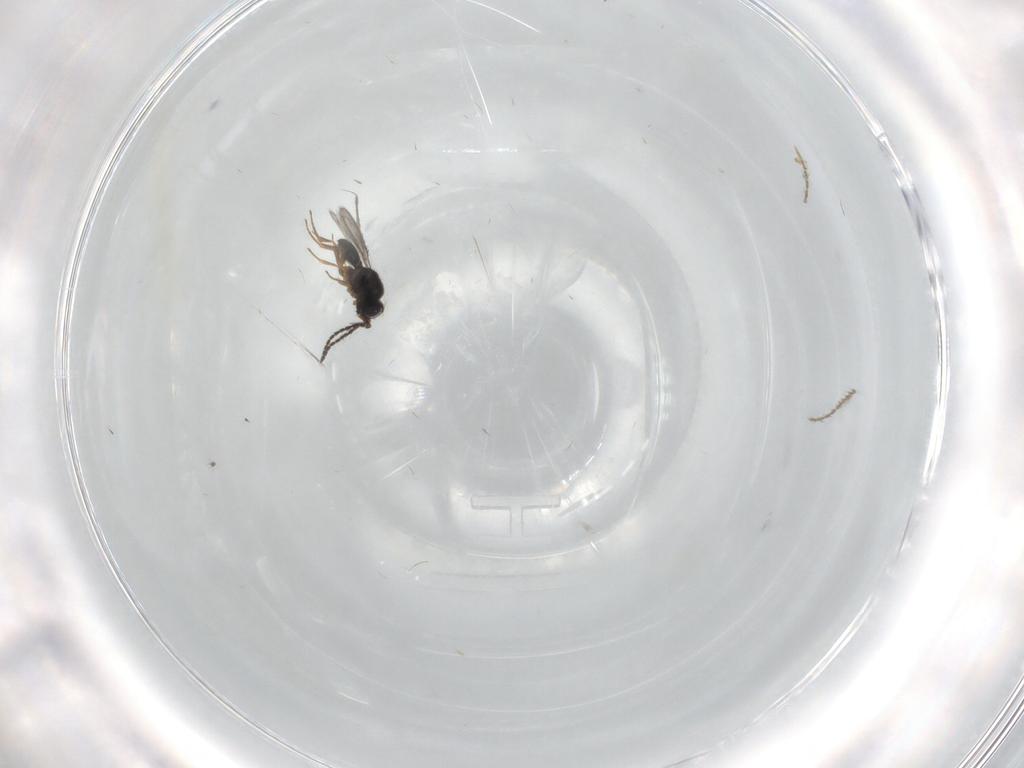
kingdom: Animalia
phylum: Arthropoda
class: Insecta
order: Hymenoptera
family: Scelionidae
